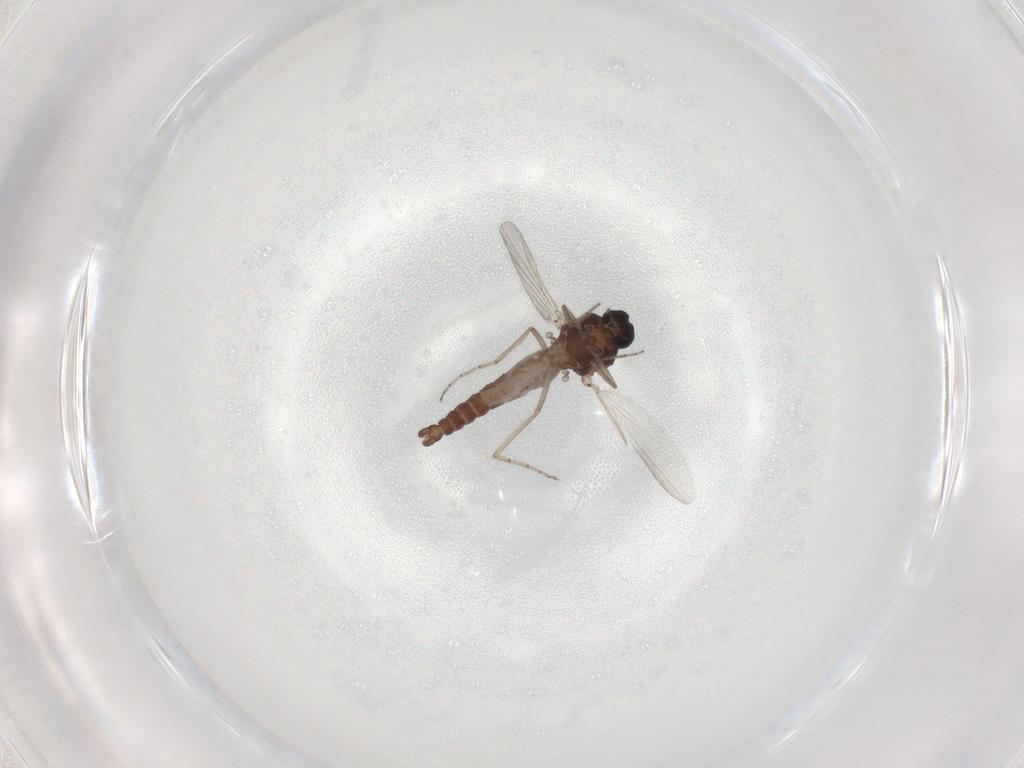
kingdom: Animalia
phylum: Arthropoda
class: Insecta
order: Diptera
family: Ceratopogonidae
